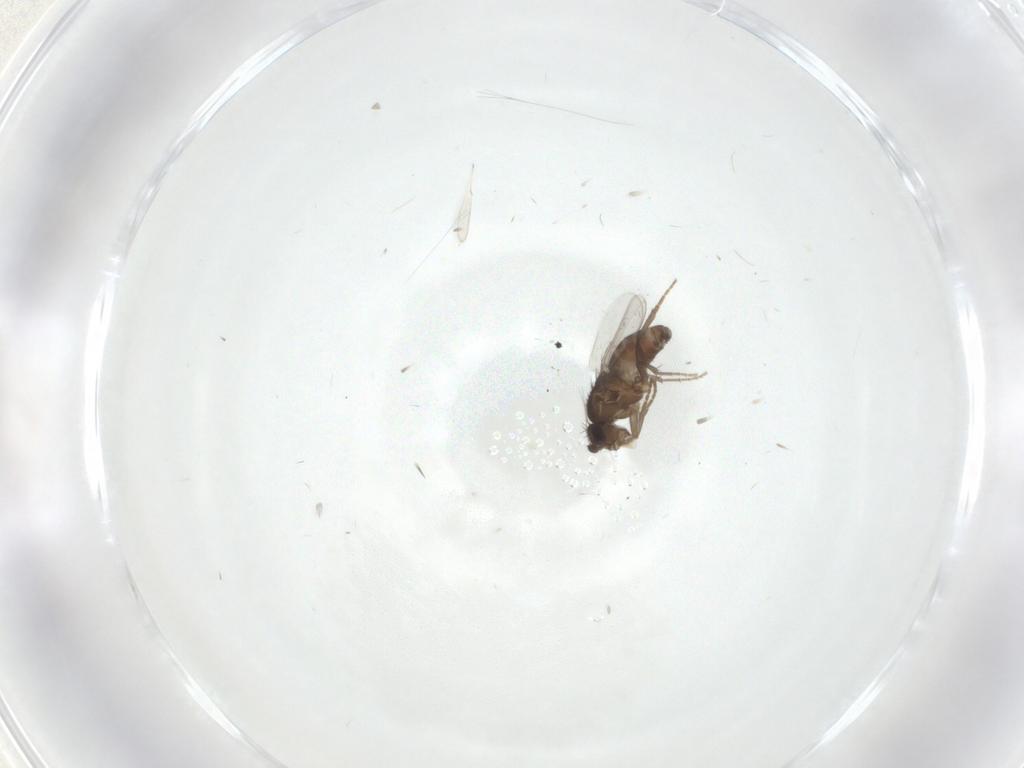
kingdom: Animalia
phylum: Arthropoda
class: Insecta
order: Diptera
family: Sphaeroceridae
